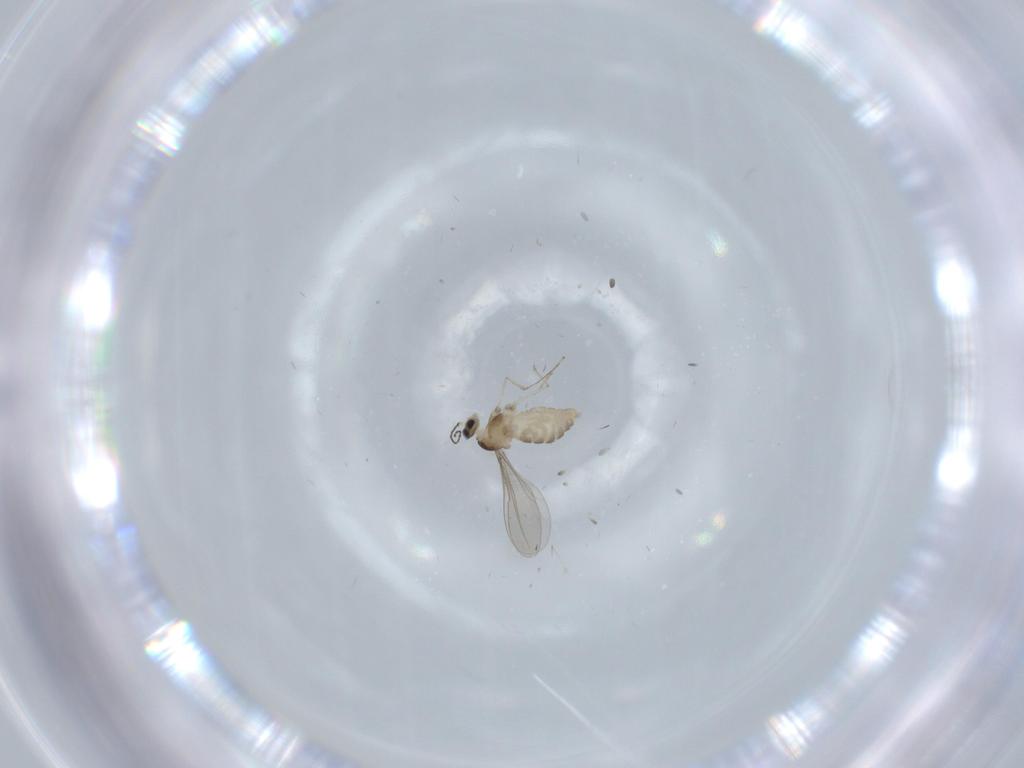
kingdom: Animalia
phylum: Arthropoda
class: Insecta
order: Diptera
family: Cecidomyiidae
